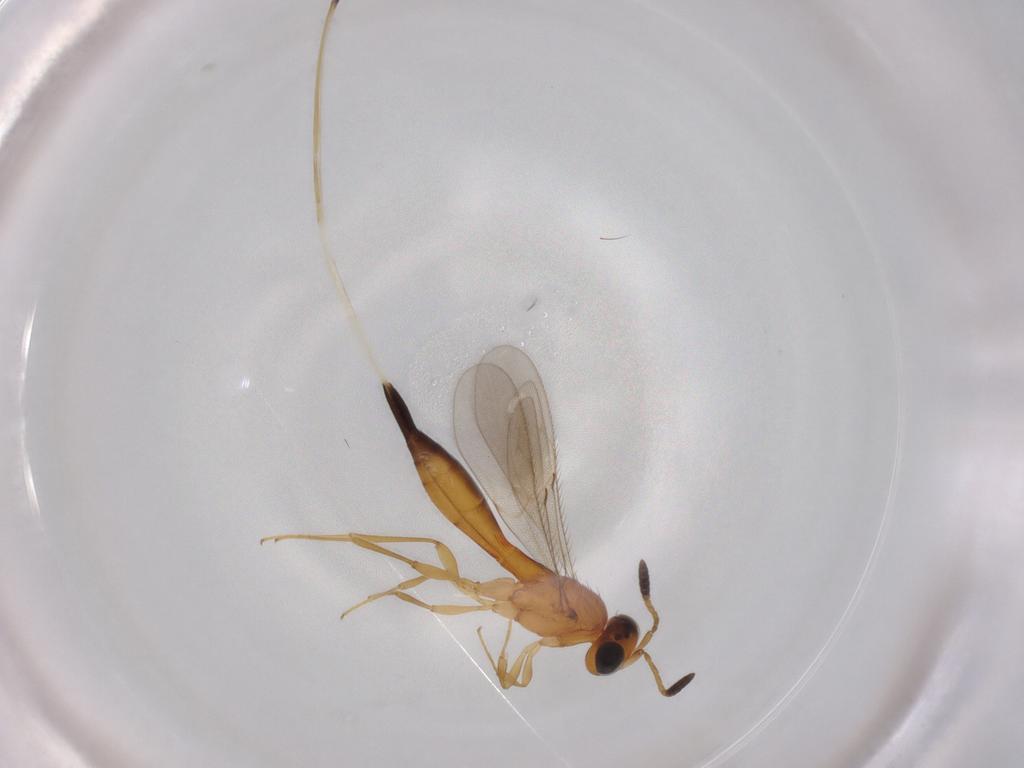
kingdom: Animalia
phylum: Arthropoda
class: Insecta
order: Hymenoptera
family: Scelionidae
